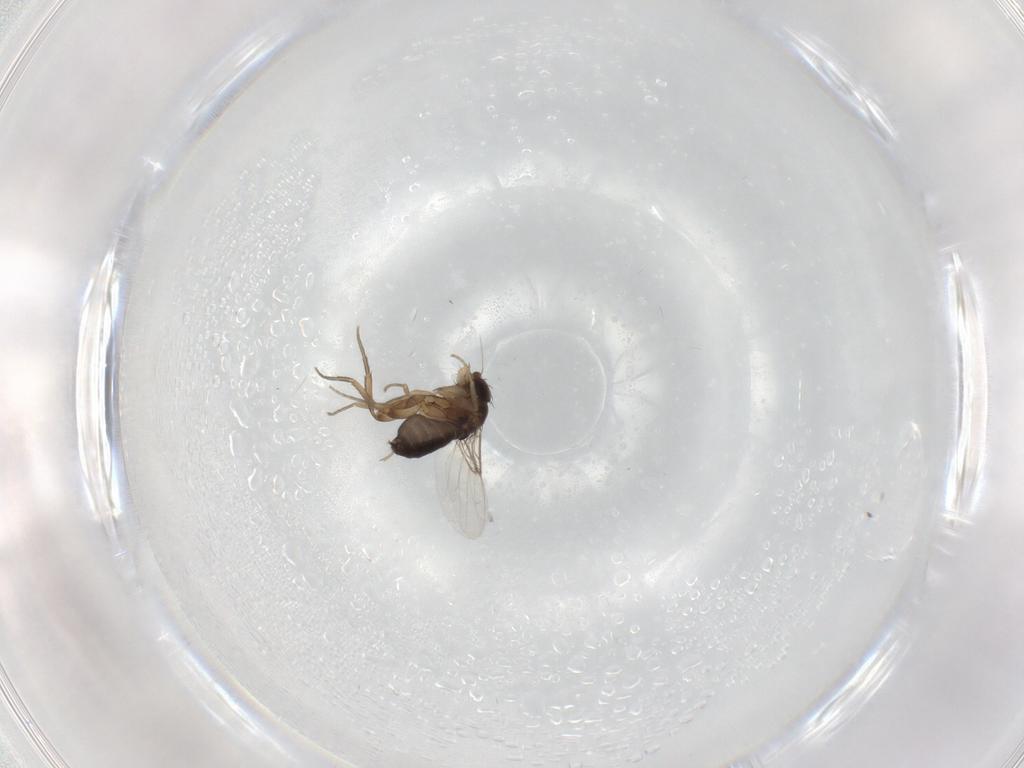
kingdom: Animalia
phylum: Arthropoda
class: Insecta
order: Diptera
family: Phoridae
